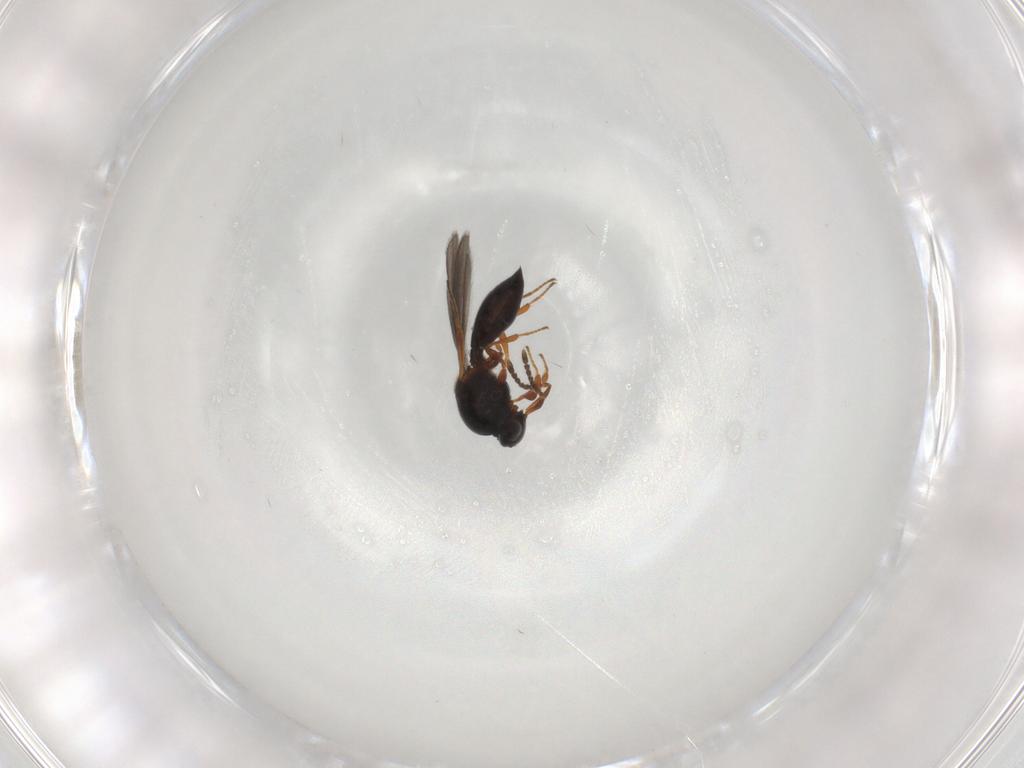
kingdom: Animalia
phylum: Arthropoda
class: Insecta
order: Hymenoptera
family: Platygastridae
